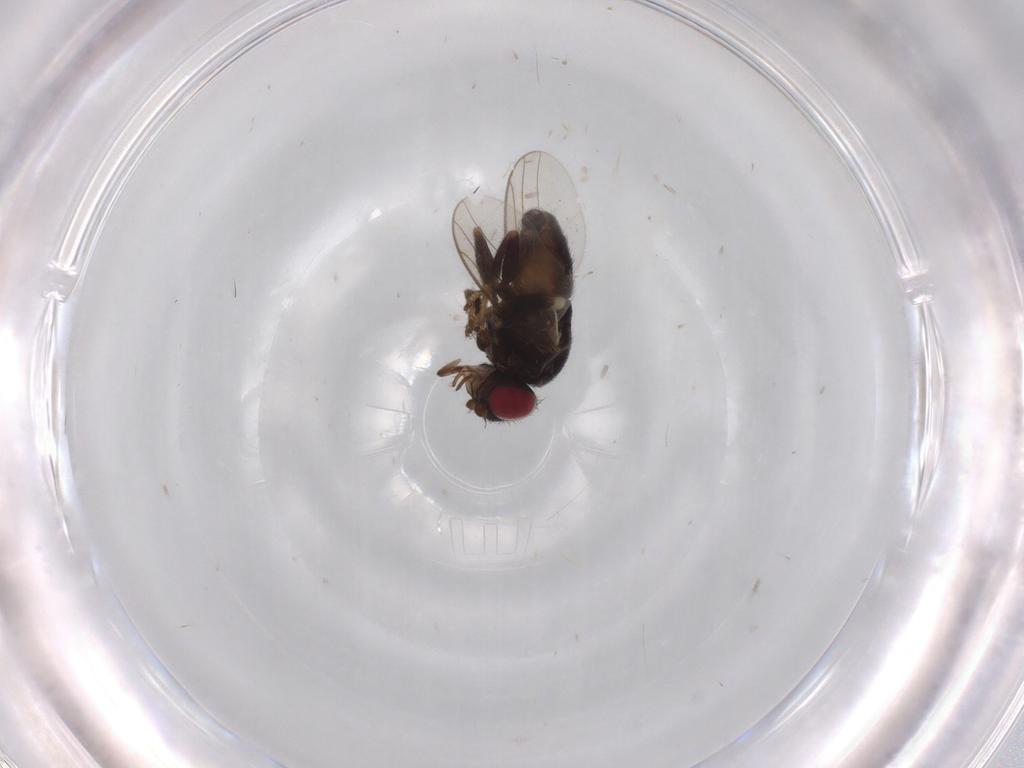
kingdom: Animalia
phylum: Arthropoda
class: Insecta
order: Diptera
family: Chloropidae
